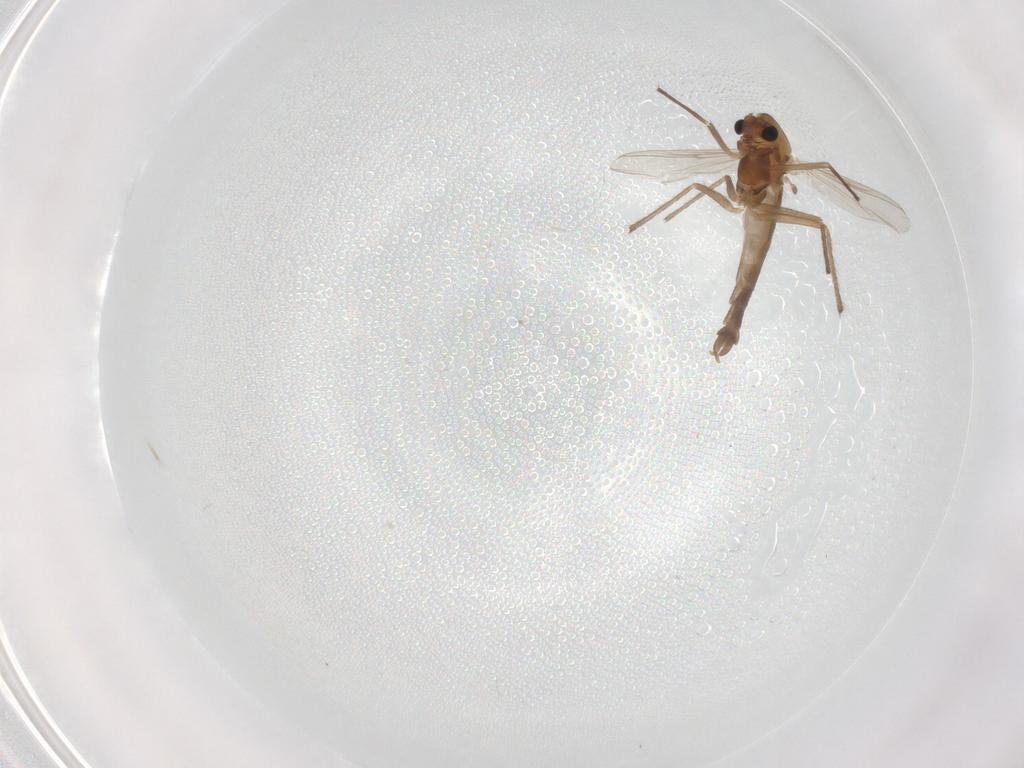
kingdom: Animalia
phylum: Arthropoda
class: Insecta
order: Diptera
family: Chironomidae
